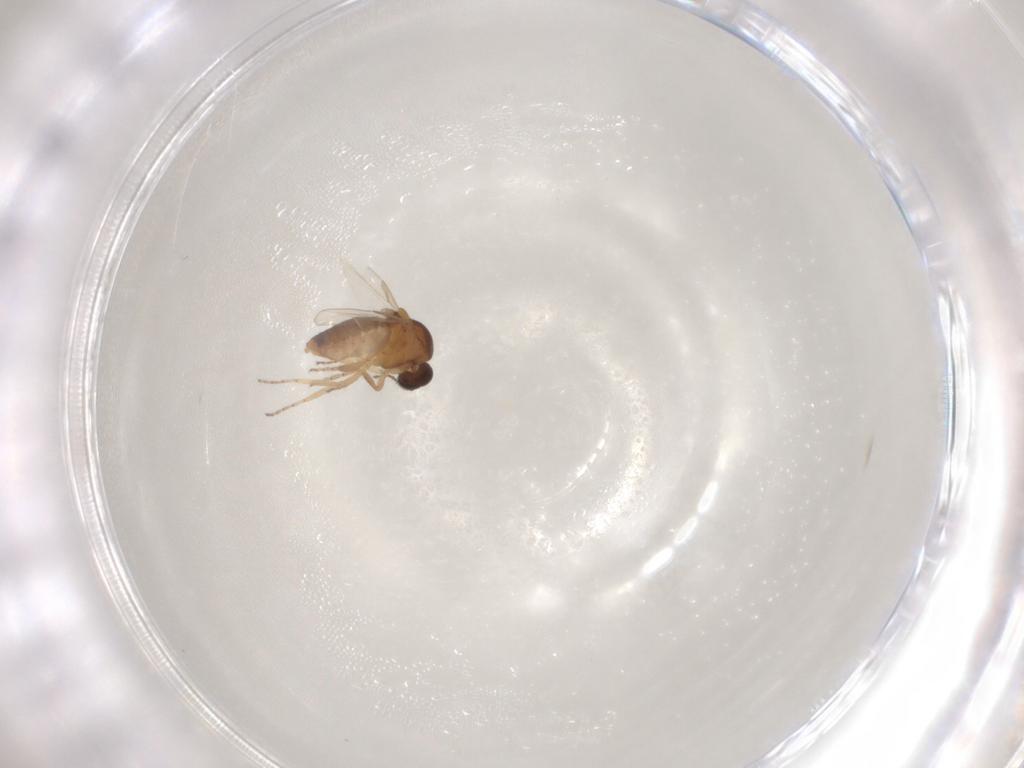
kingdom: Animalia
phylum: Arthropoda
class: Insecta
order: Diptera
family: Ceratopogonidae
